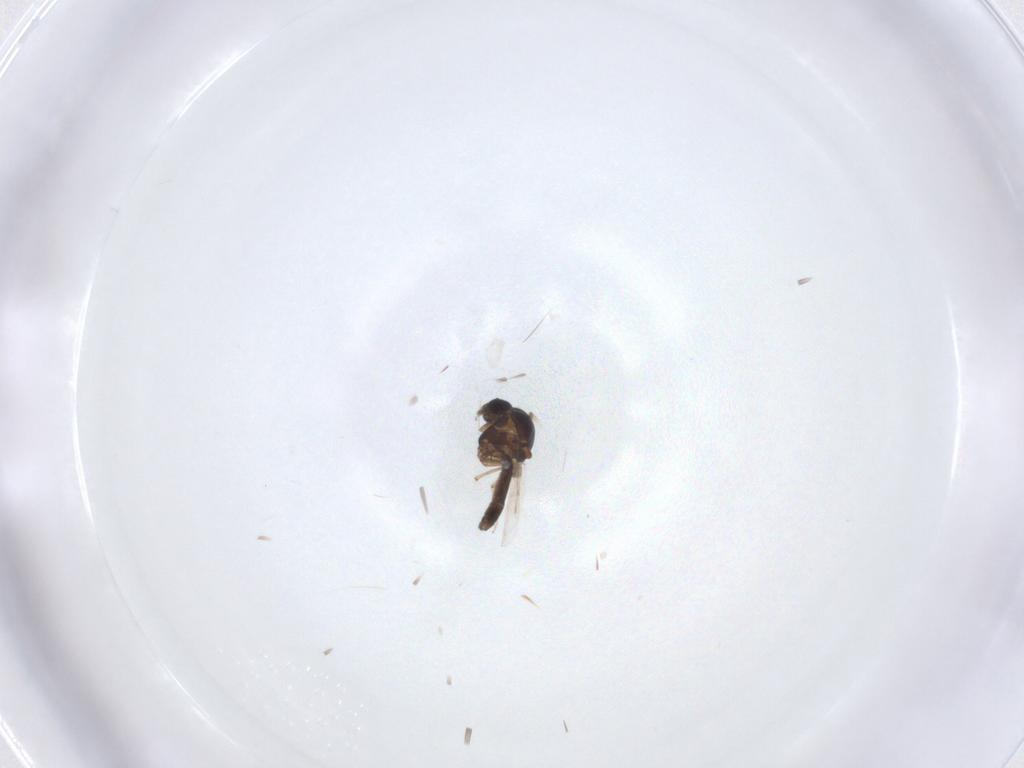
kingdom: Animalia
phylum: Arthropoda
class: Insecta
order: Diptera
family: Ceratopogonidae
